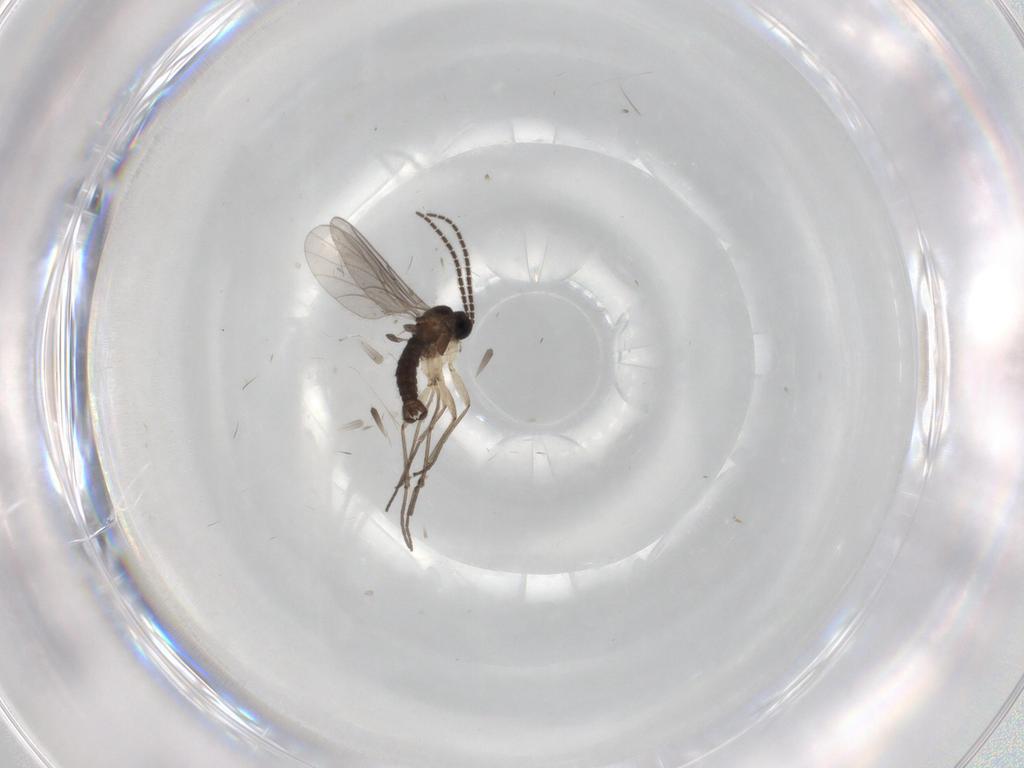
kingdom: Animalia
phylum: Arthropoda
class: Insecta
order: Diptera
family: Sciaridae
